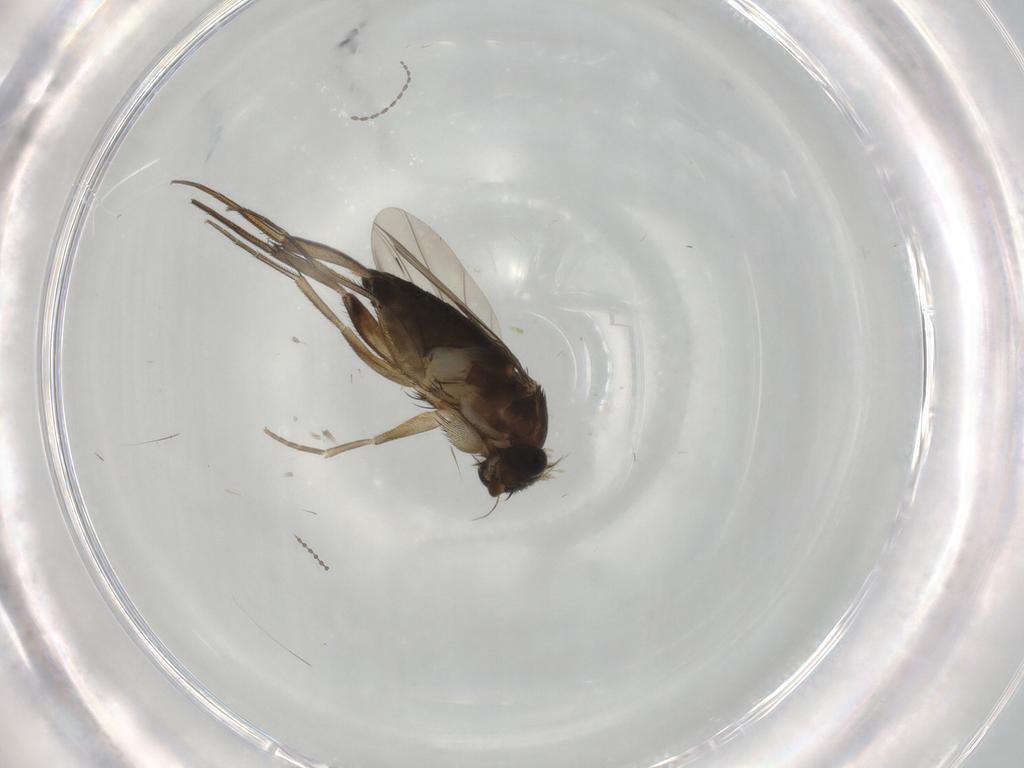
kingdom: Animalia
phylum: Arthropoda
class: Insecta
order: Diptera
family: Phoridae
